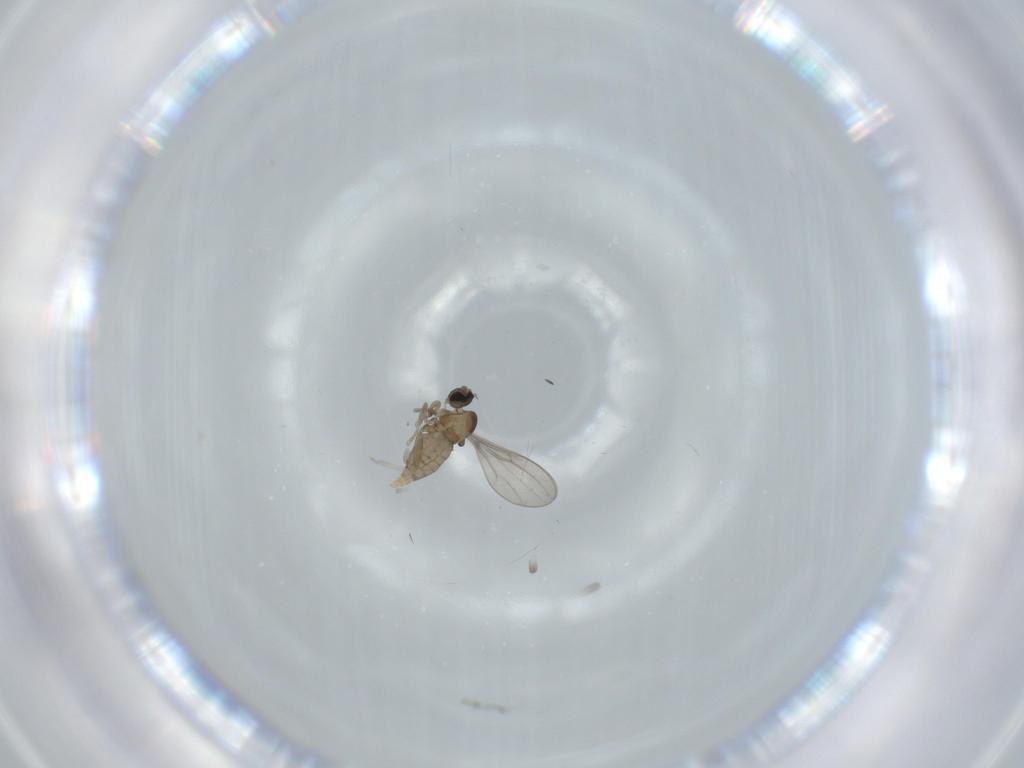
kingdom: Animalia
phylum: Arthropoda
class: Insecta
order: Diptera
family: Cecidomyiidae
